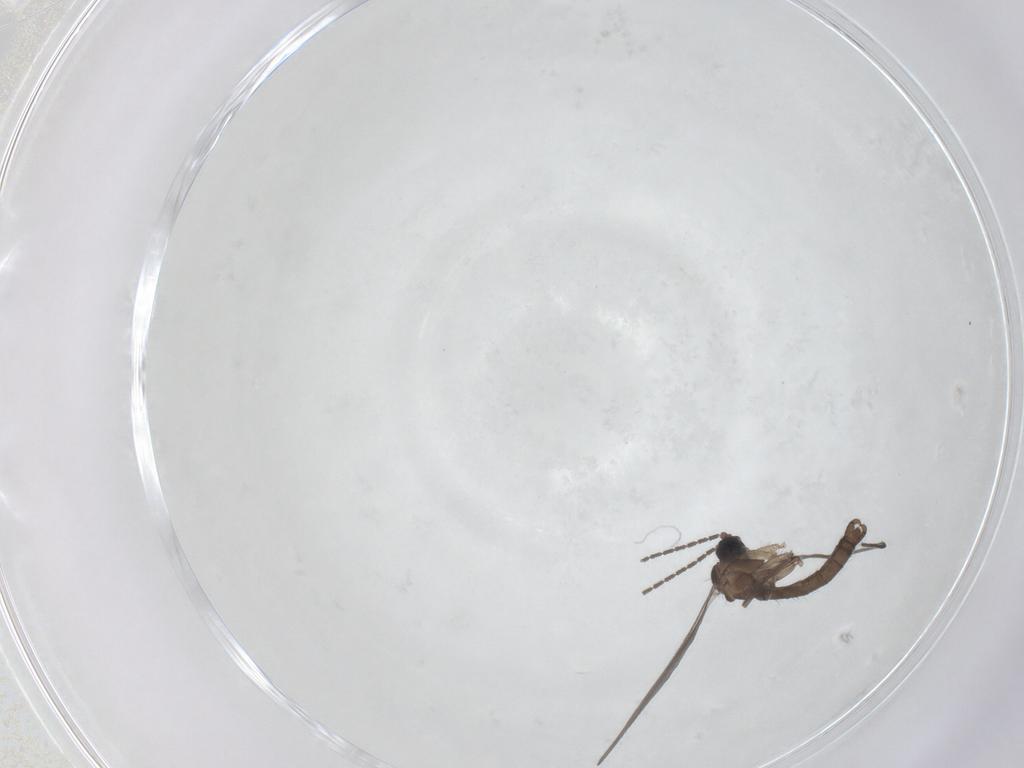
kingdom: Animalia
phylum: Arthropoda
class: Insecta
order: Diptera
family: Sciaridae
